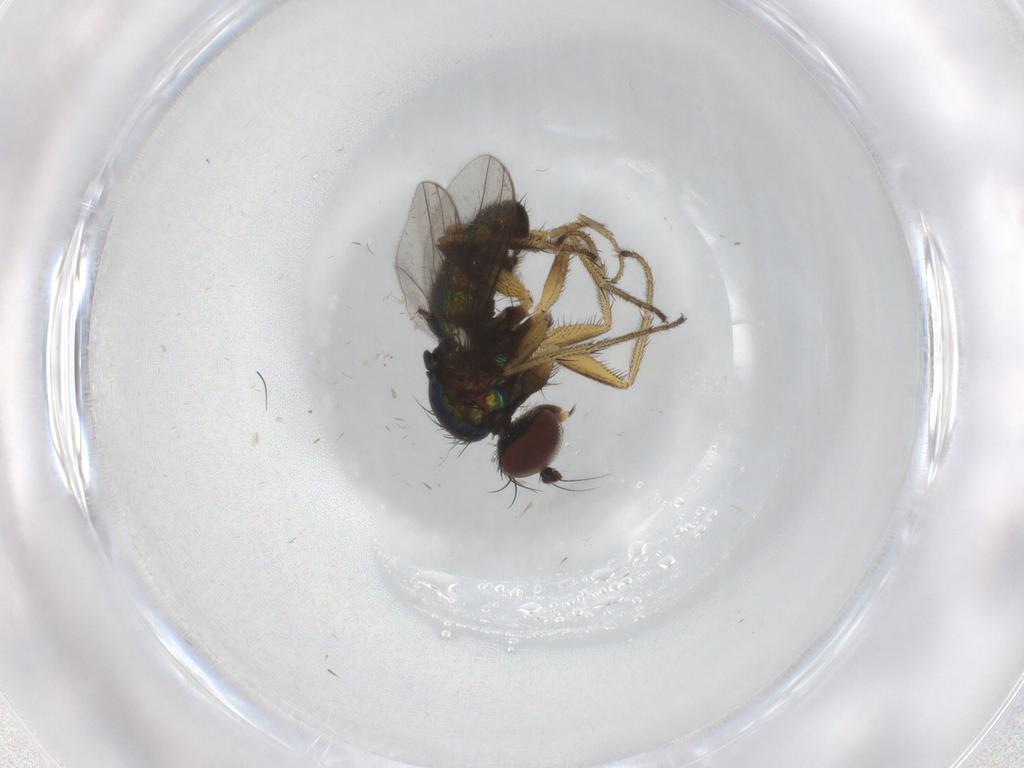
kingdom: Animalia
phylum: Arthropoda
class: Insecta
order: Diptera
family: Dolichopodidae
